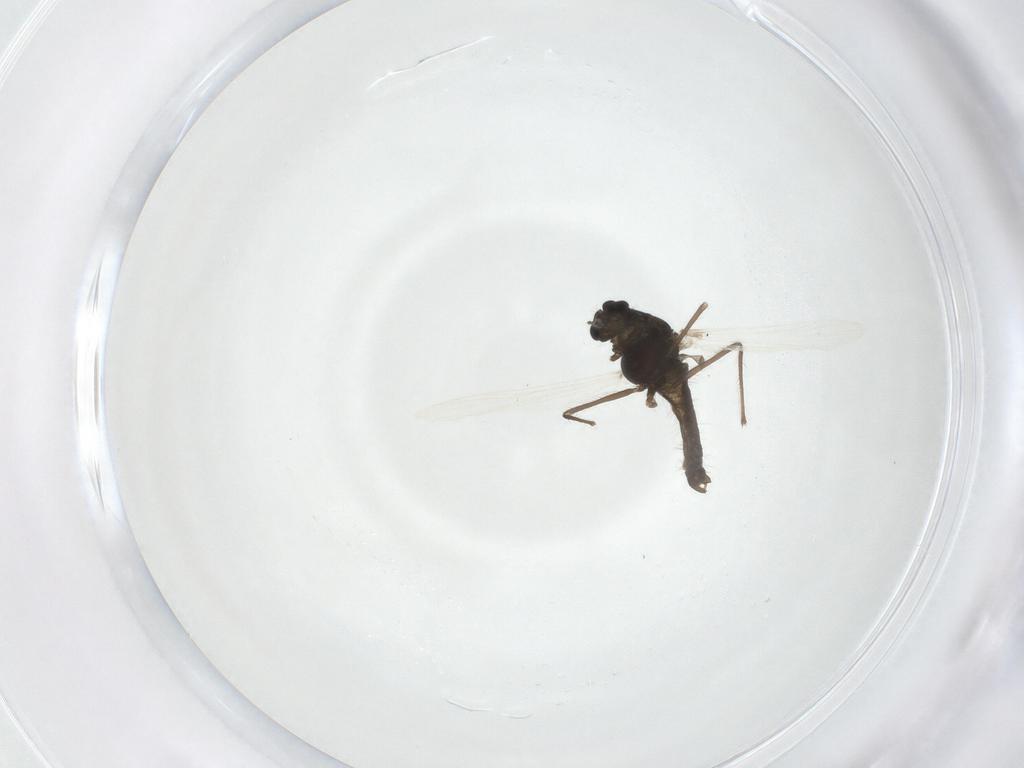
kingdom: Animalia
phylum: Arthropoda
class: Insecta
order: Diptera
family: Chironomidae
